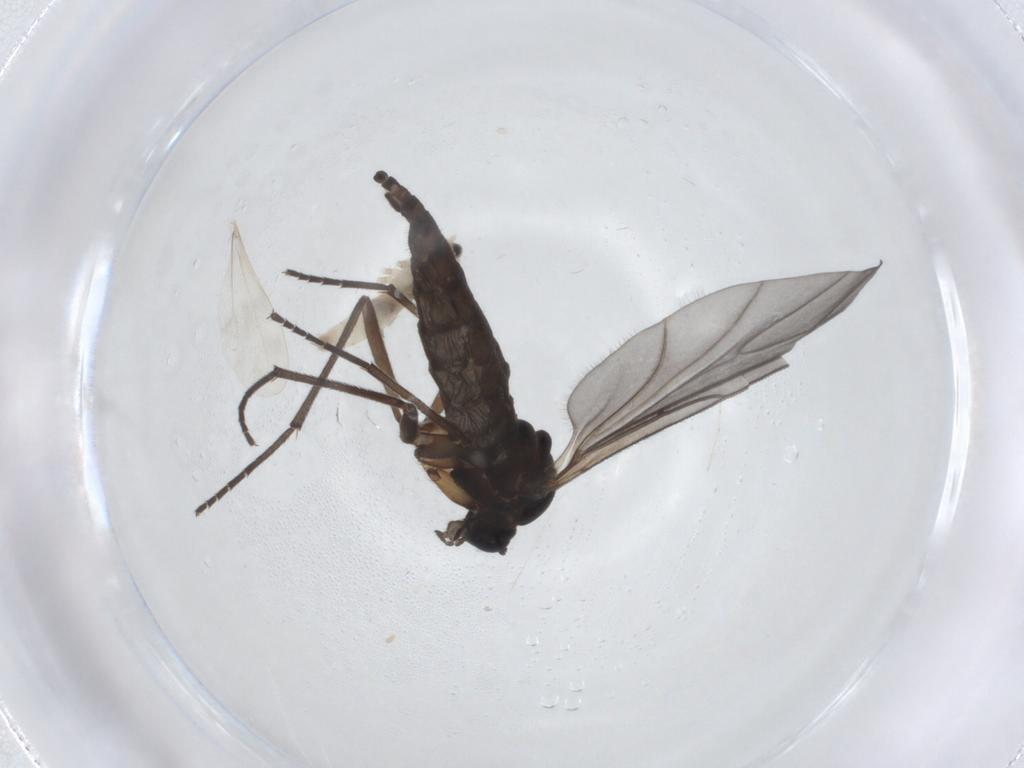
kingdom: Animalia
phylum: Arthropoda
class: Insecta
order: Diptera
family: Sciaridae
